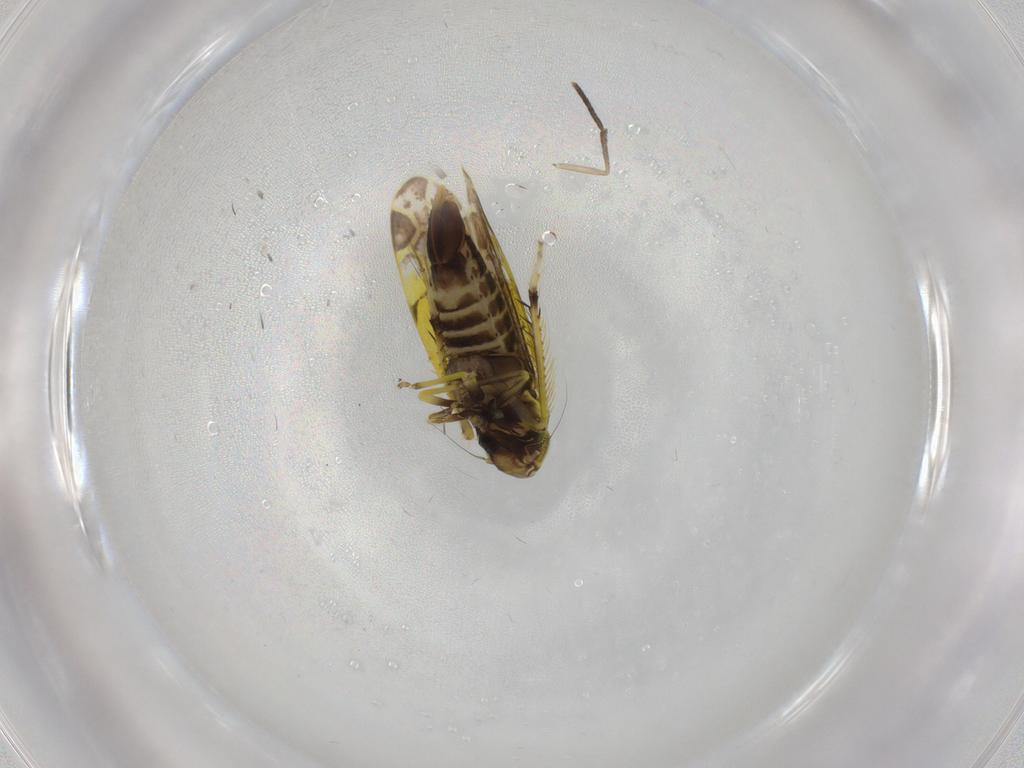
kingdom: Animalia
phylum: Arthropoda
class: Insecta
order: Hemiptera
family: Cicadellidae
